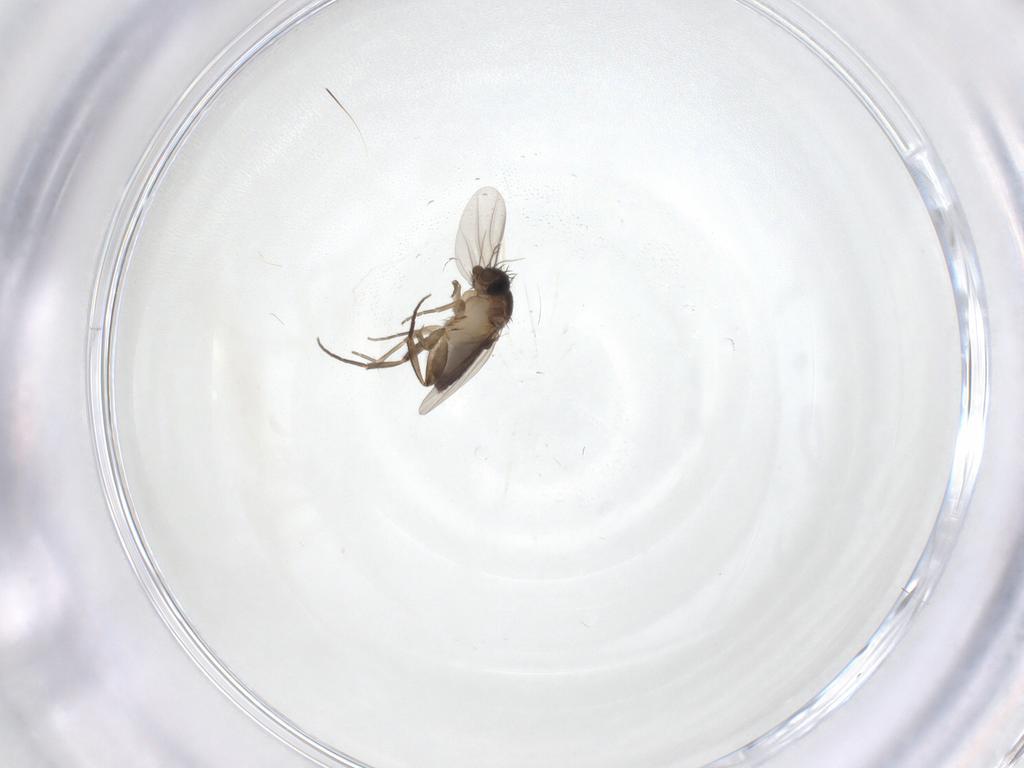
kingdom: Animalia
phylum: Arthropoda
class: Insecta
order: Diptera
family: Phoridae
